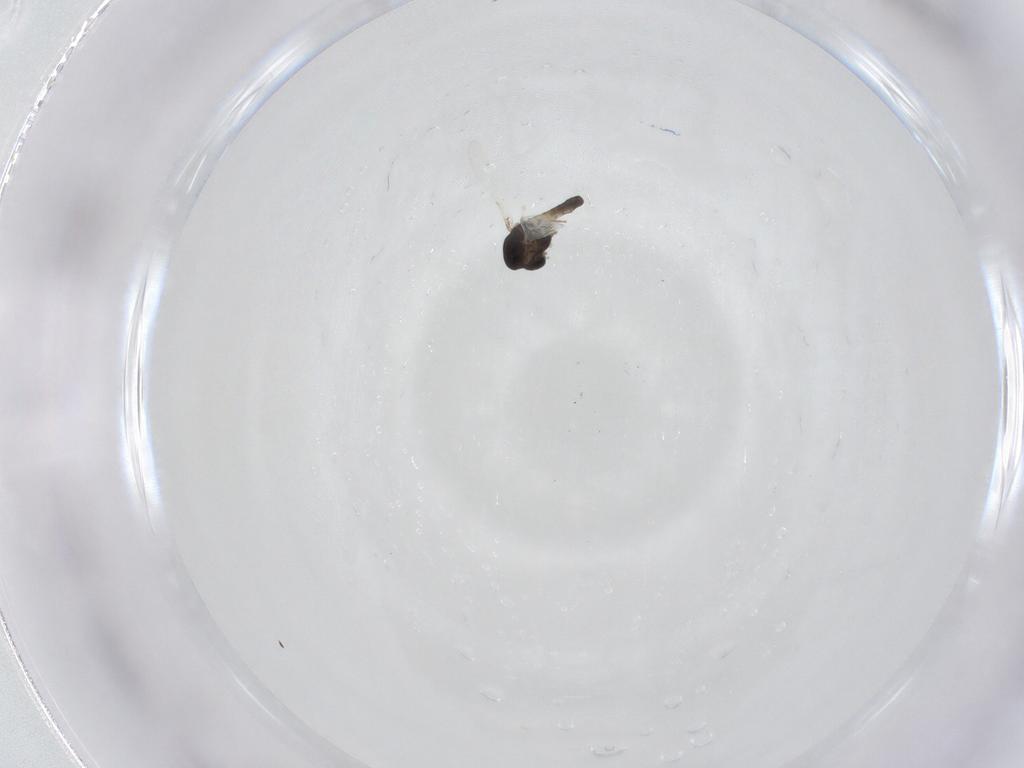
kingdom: Animalia
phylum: Arthropoda
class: Insecta
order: Diptera
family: Chironomidae
